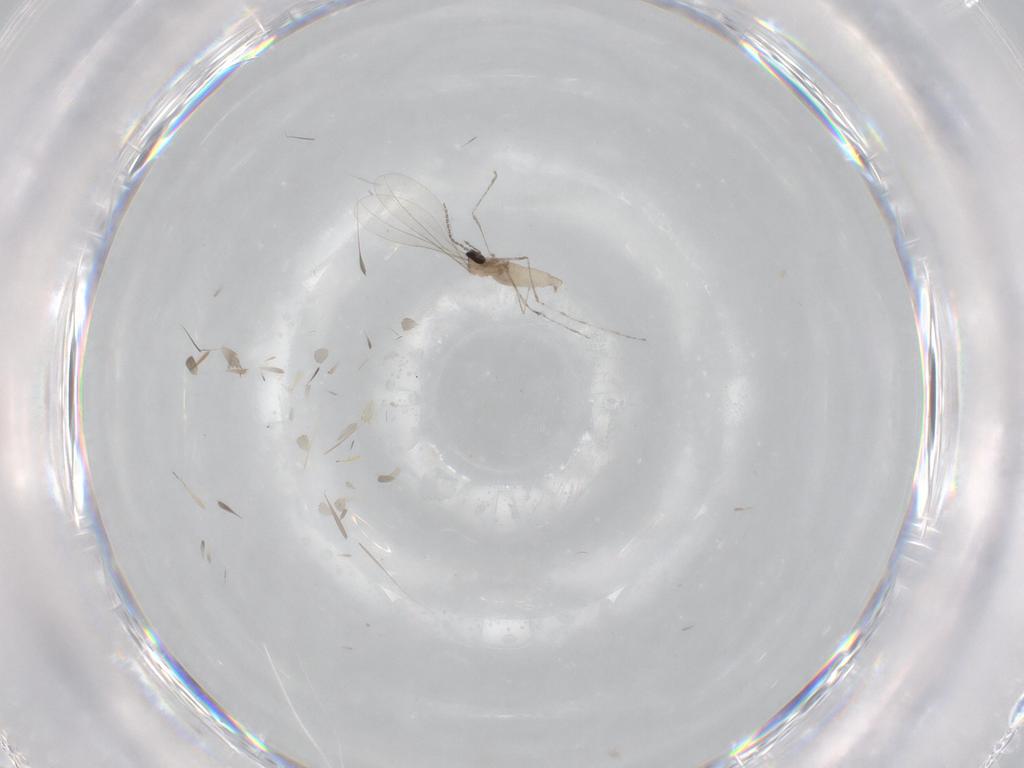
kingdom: Animalia
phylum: Arthropoda
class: Insecta
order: Diptera
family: Cecidomyiidae
